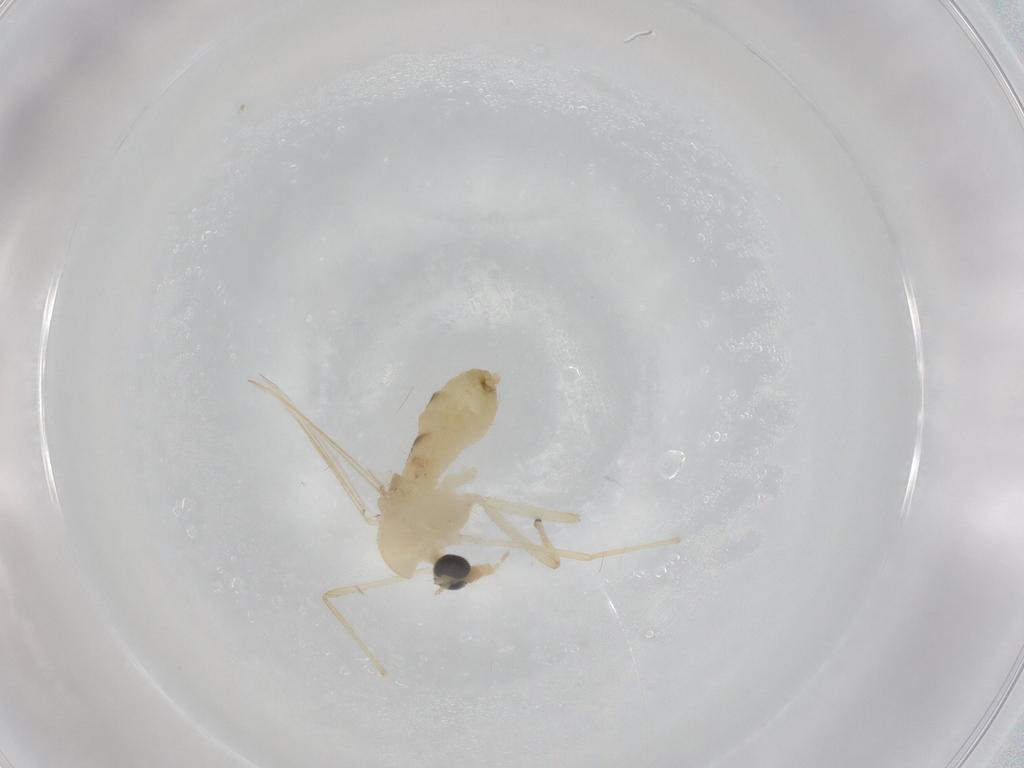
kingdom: Animalia
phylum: Arthropoda
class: Insecta
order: Diptera
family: Chironomidae
